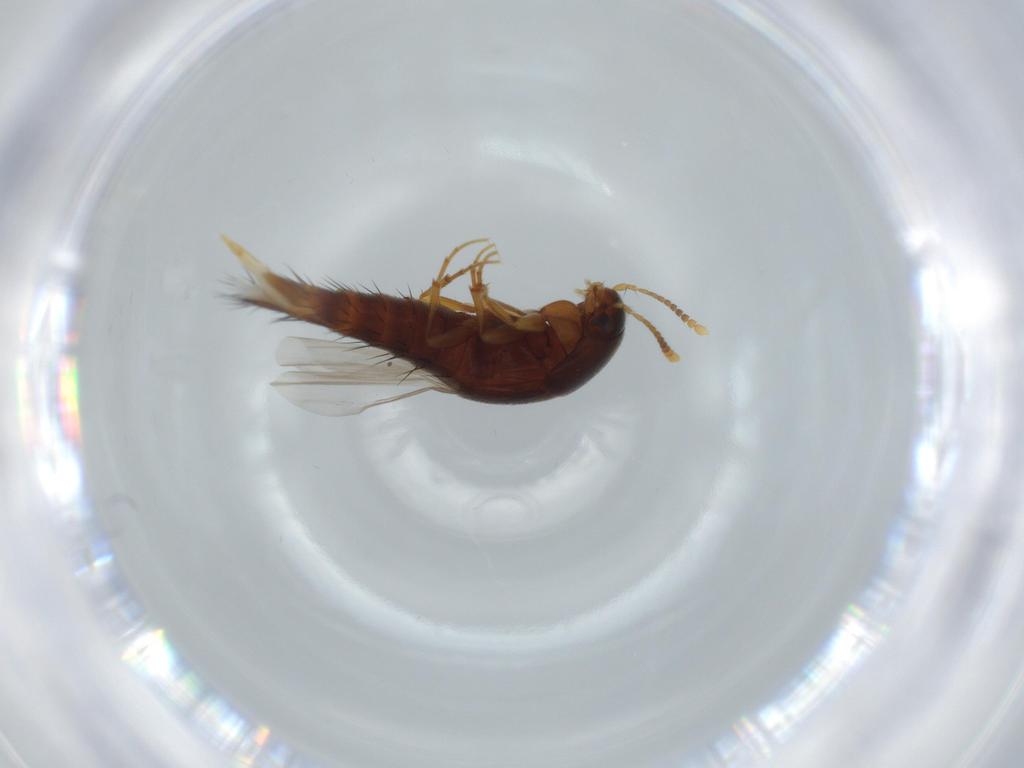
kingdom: Animalia
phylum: Arthropoda
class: Insecta
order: Coleoptera
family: Staphylinidae
